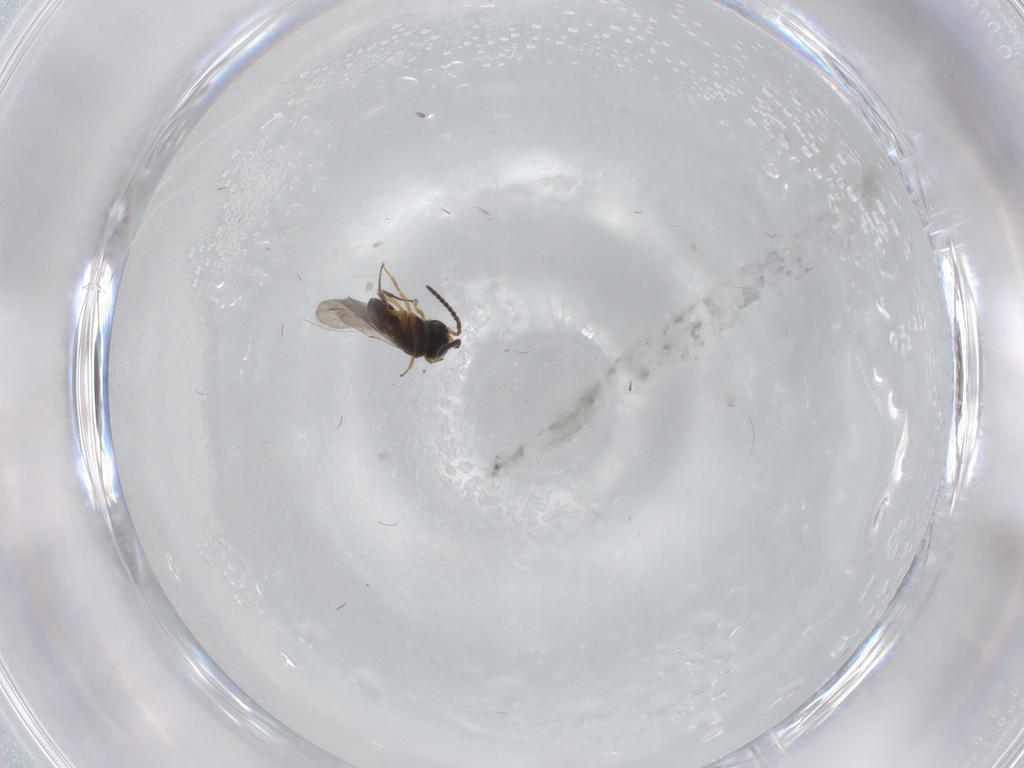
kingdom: Animalia
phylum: Arthropoda
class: Insecta
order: Hymenoptera
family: Scelionidae
